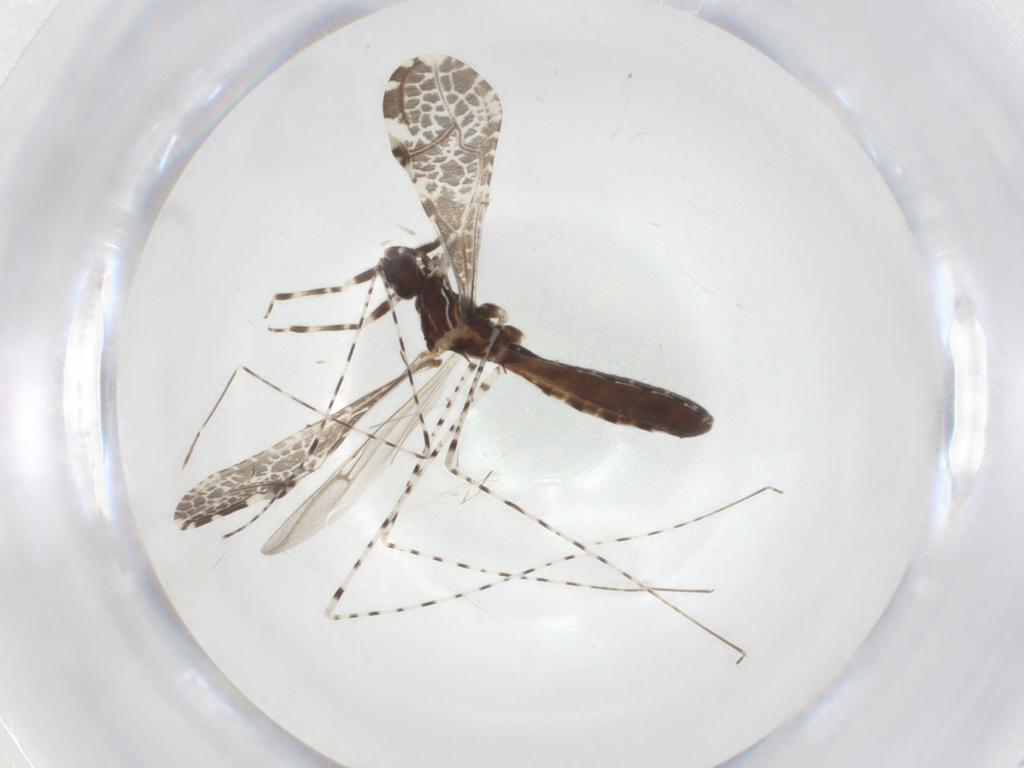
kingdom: Animalia
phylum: Arthropoda
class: Insecta
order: Hemiptera
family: Reduviidae
